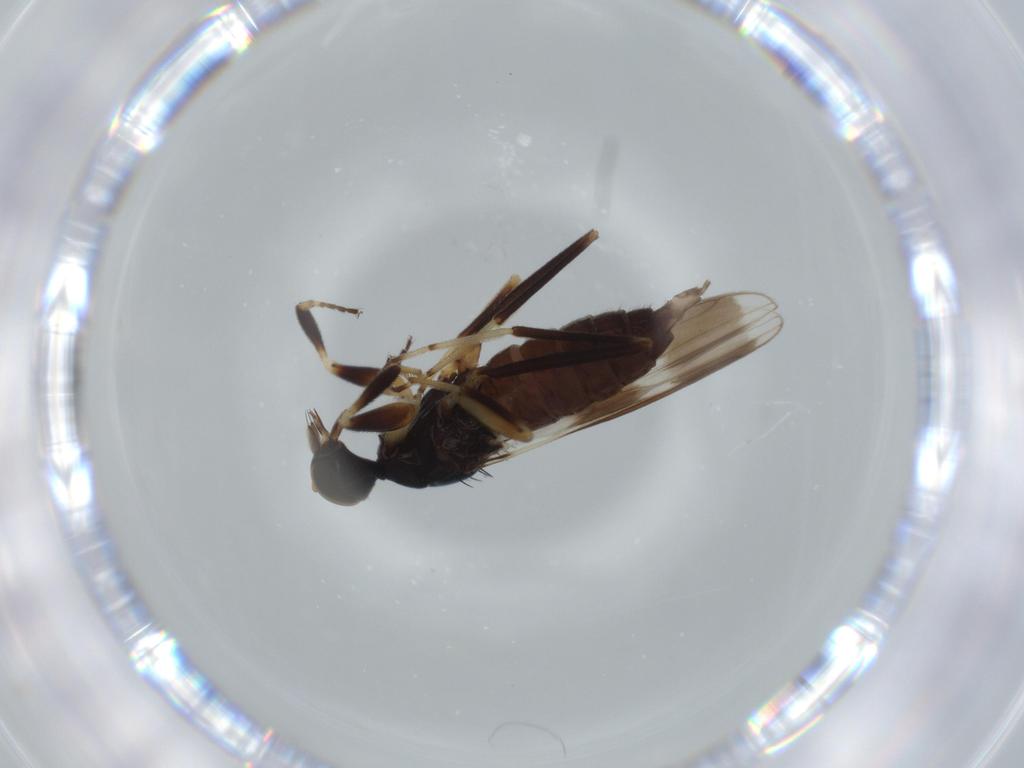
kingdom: Animalia
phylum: Arthropoda
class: Insecta
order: Diptera
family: Hybotidae
